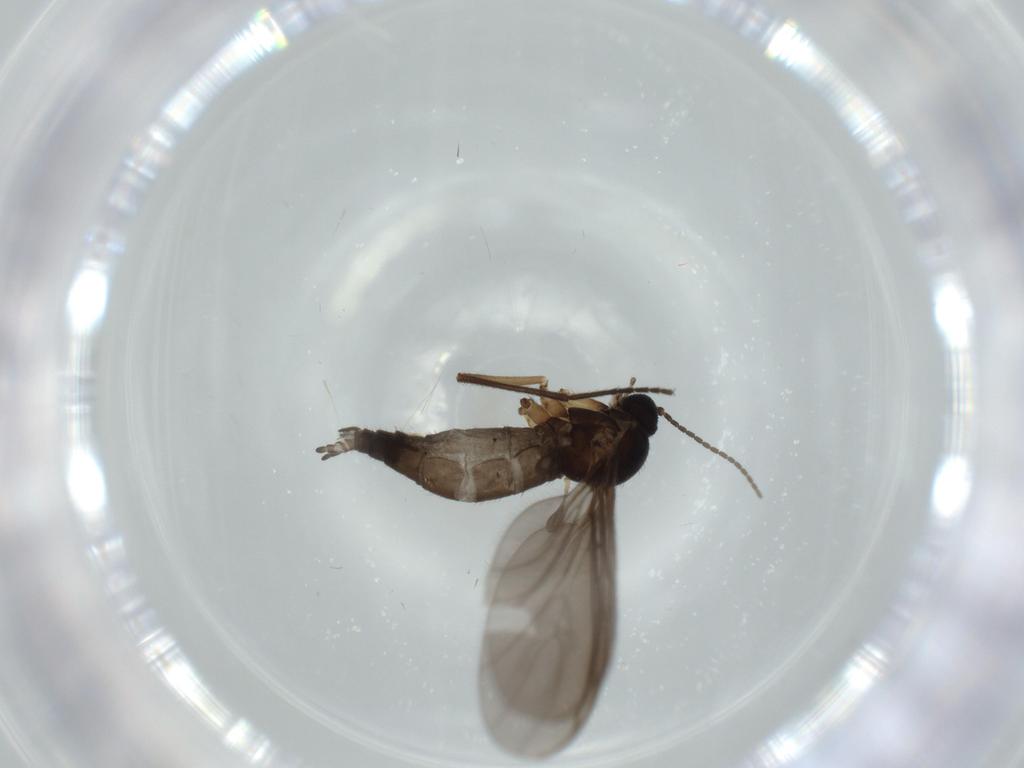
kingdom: Animalia
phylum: Arthropoda
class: Insecta
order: Diptera
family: Sciaridae
